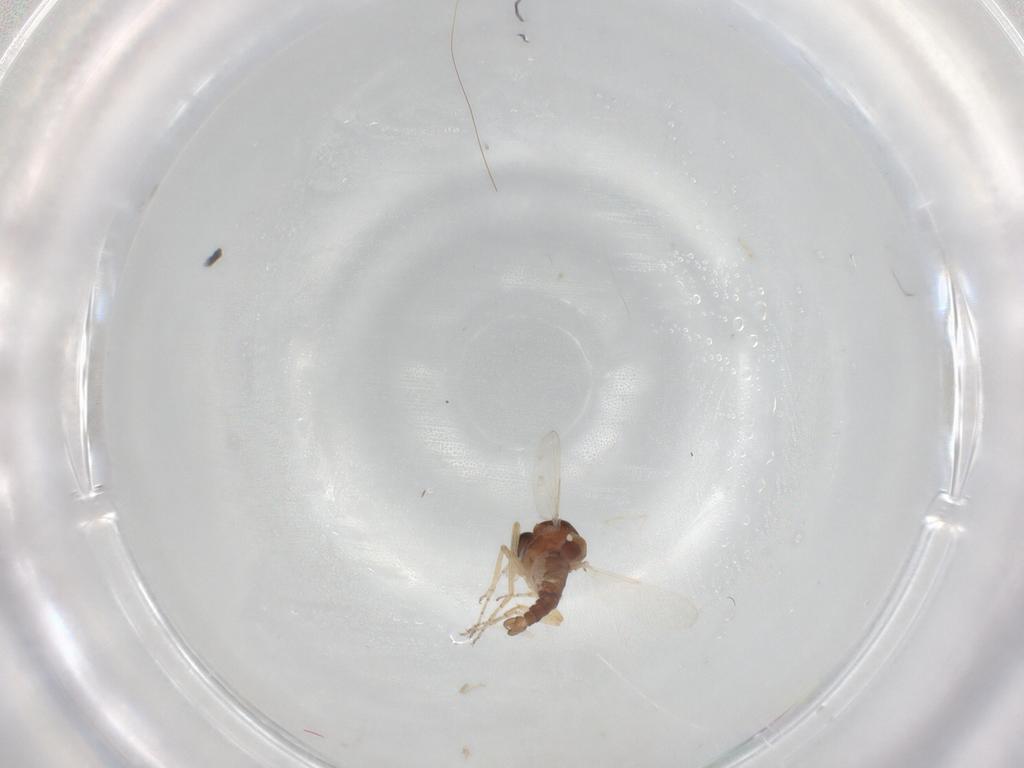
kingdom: Animalia
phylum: Arthropoda
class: Insecta
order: Diptera
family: Ceratopogonidae
